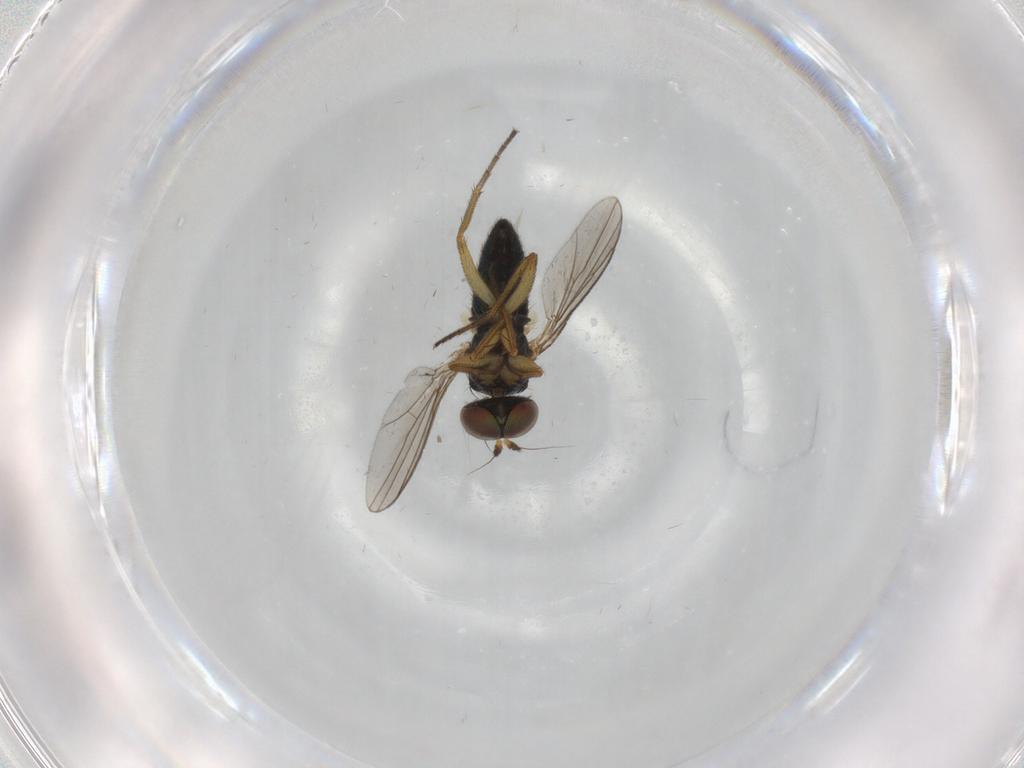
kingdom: Animalia
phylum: Arthropoda
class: Insecta
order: Diptera
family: Dolichopodidae
